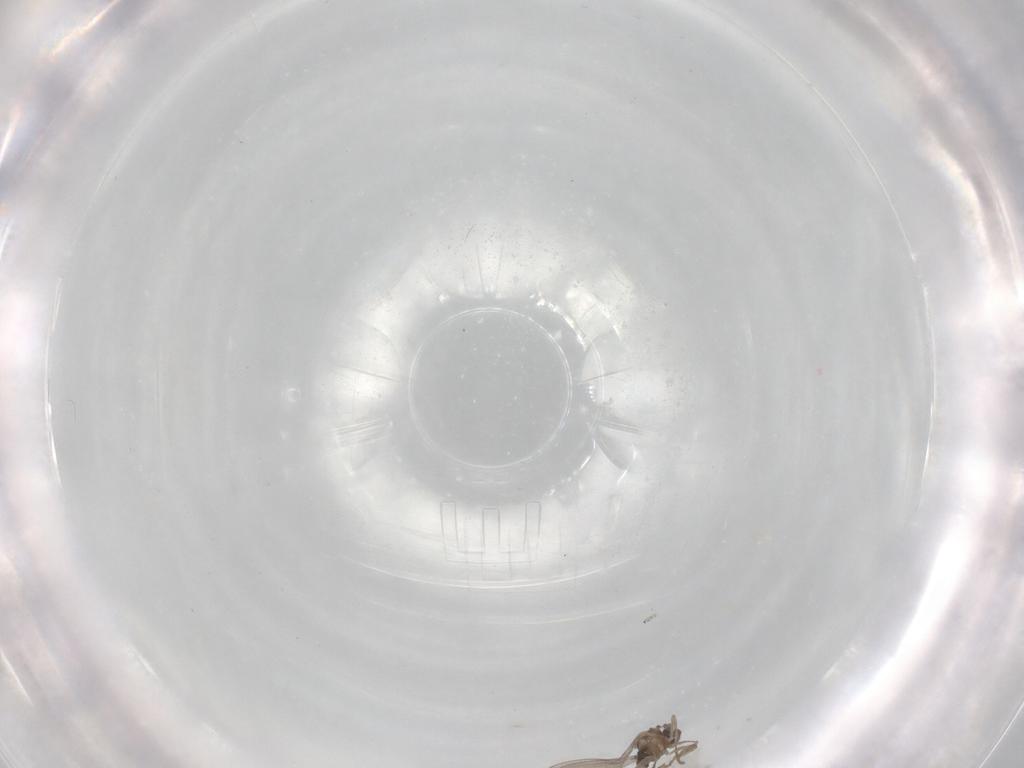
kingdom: Animalia
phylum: Arthropoda
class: Insecta
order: Diptera
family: Cecidomyiidae
